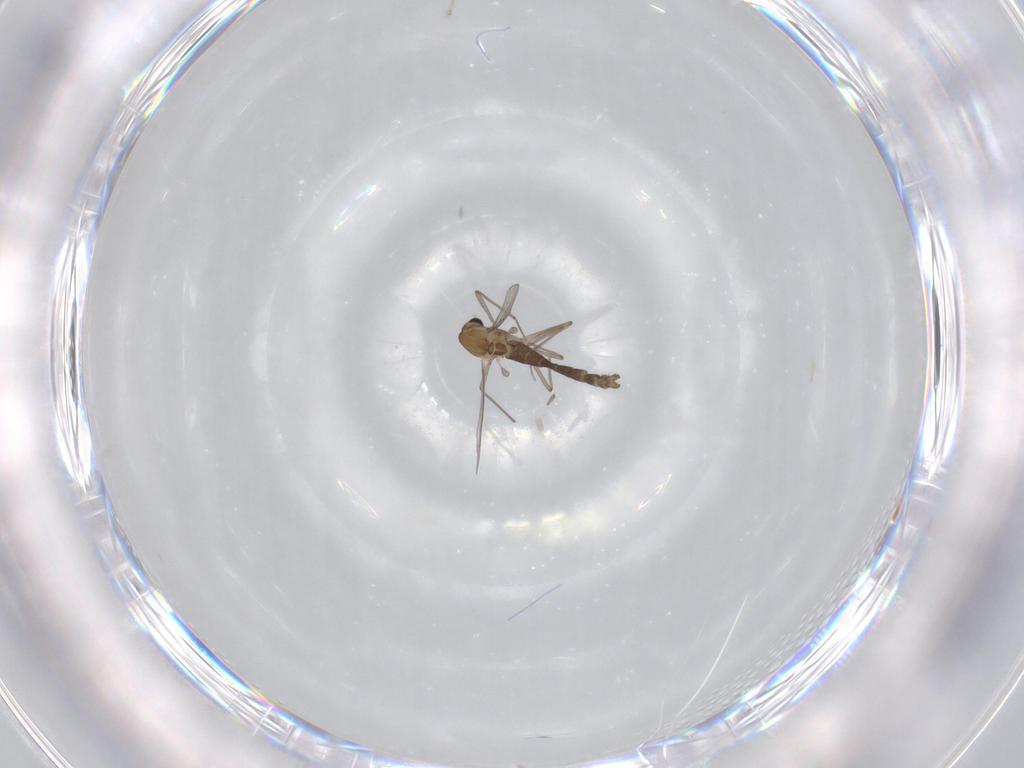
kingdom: Animalia
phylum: Arthropoda
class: Insecta
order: Diptera
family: Chironomidae
